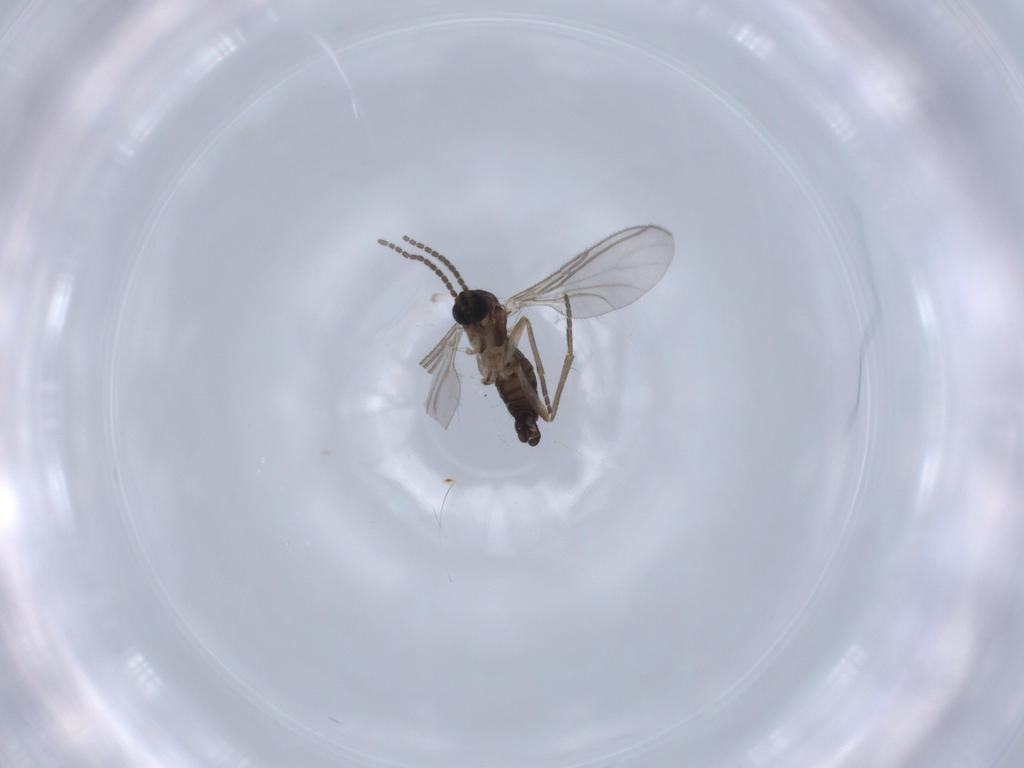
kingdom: Animalia
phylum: Arthropoda
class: Insecta
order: Diptera
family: Sciaridae
